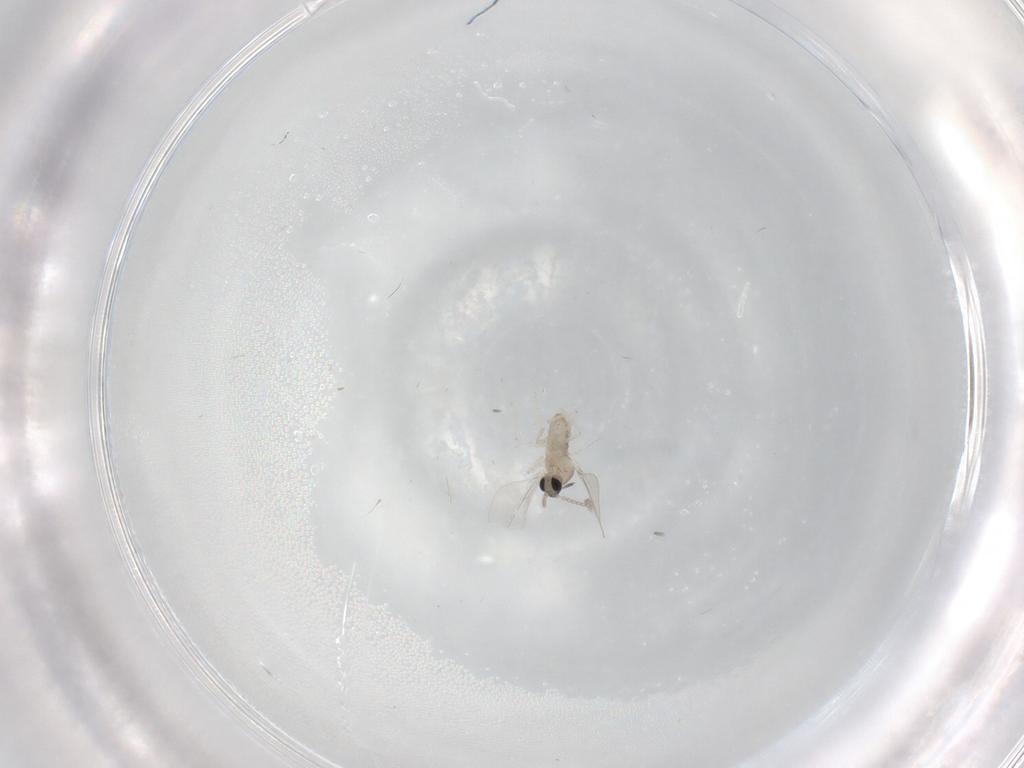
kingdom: Animalia
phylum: Arthropoda
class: Insecta
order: Diptera
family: Cecidomyiidae
